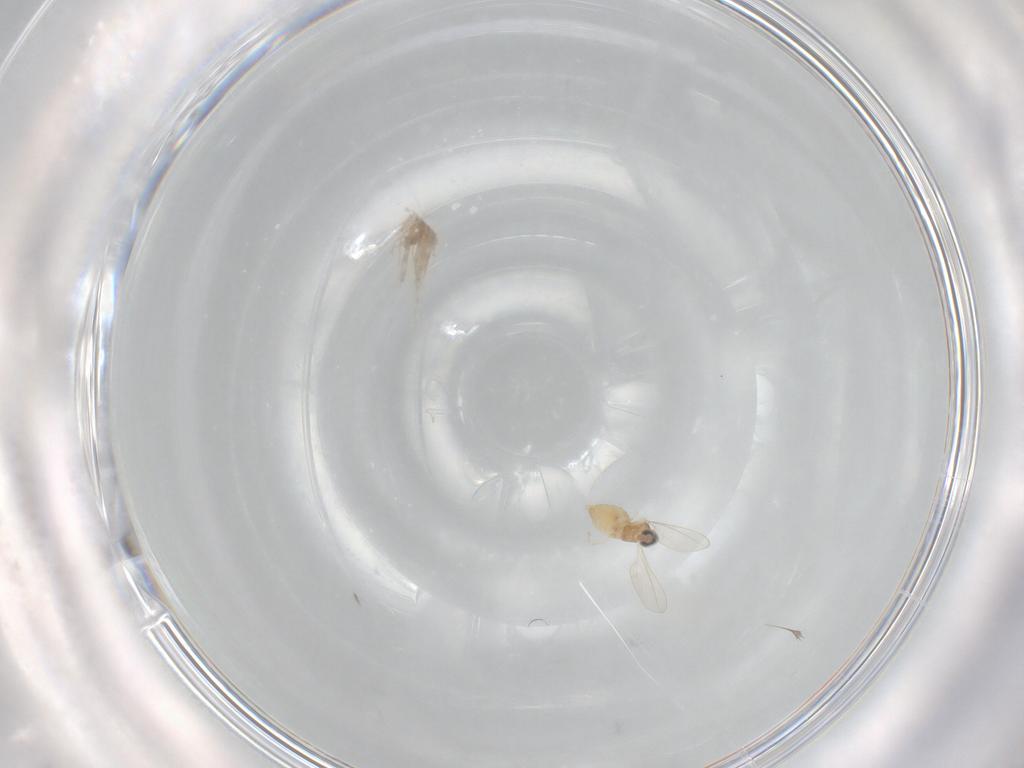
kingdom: Animalia
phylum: Arthropoda
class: Insecta
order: Diptera
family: Cecidomyiidae
